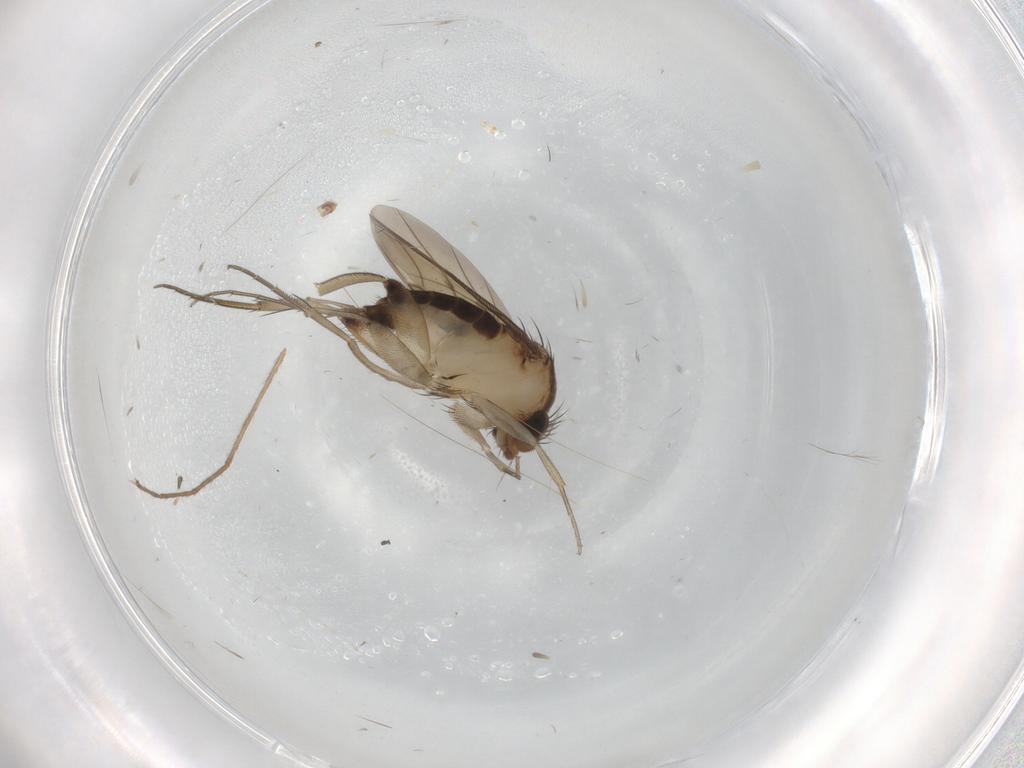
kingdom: Animalia
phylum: Arthropoda
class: Insecta
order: Diptera
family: Phoridae
